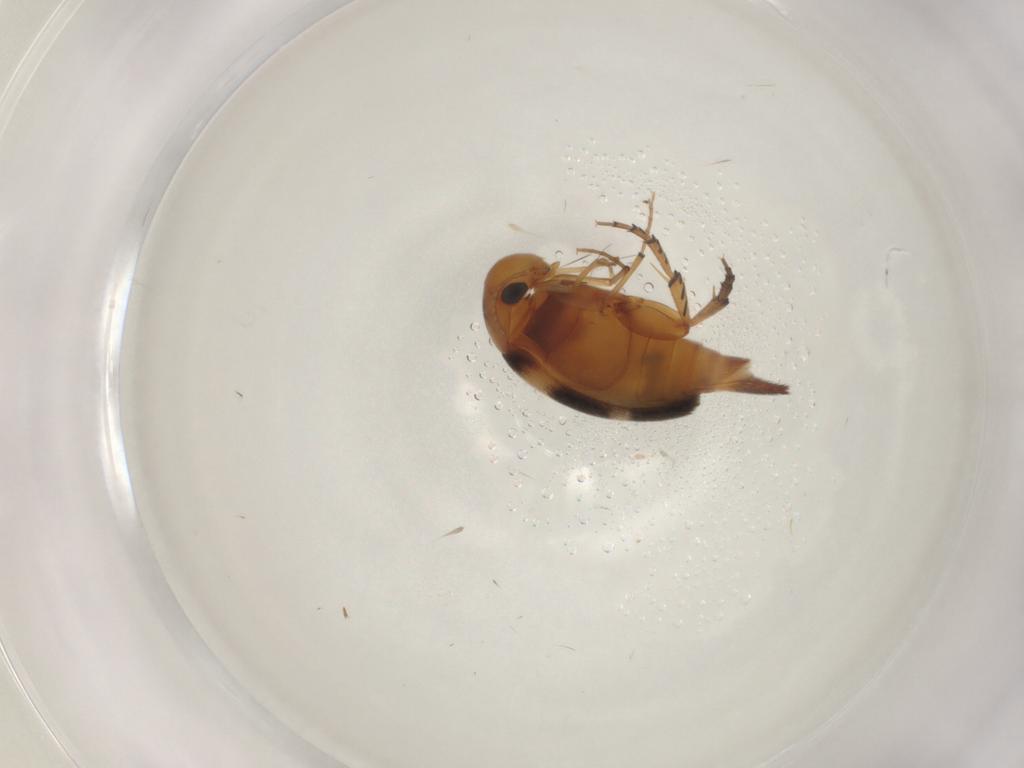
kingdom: Animalia
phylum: Arthropoda
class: Insecta
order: Coleoptera
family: Mordellidae
